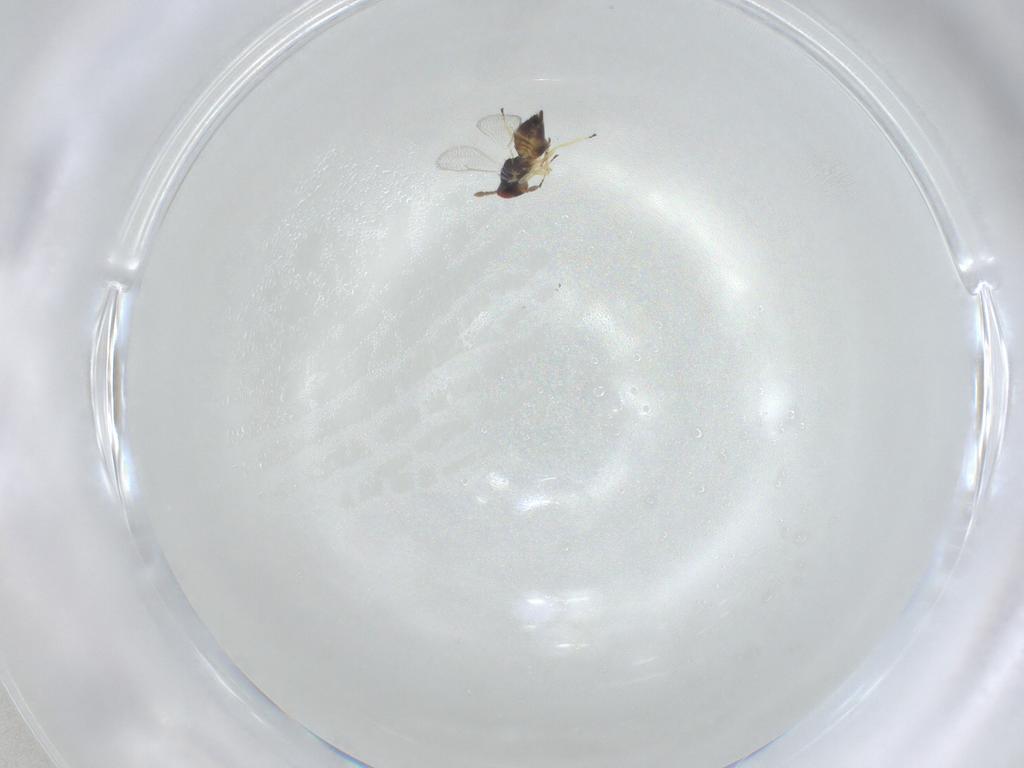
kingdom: Animalia
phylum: Arthropoda
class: Insecta
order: Hymenoptera
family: Eulophidae
